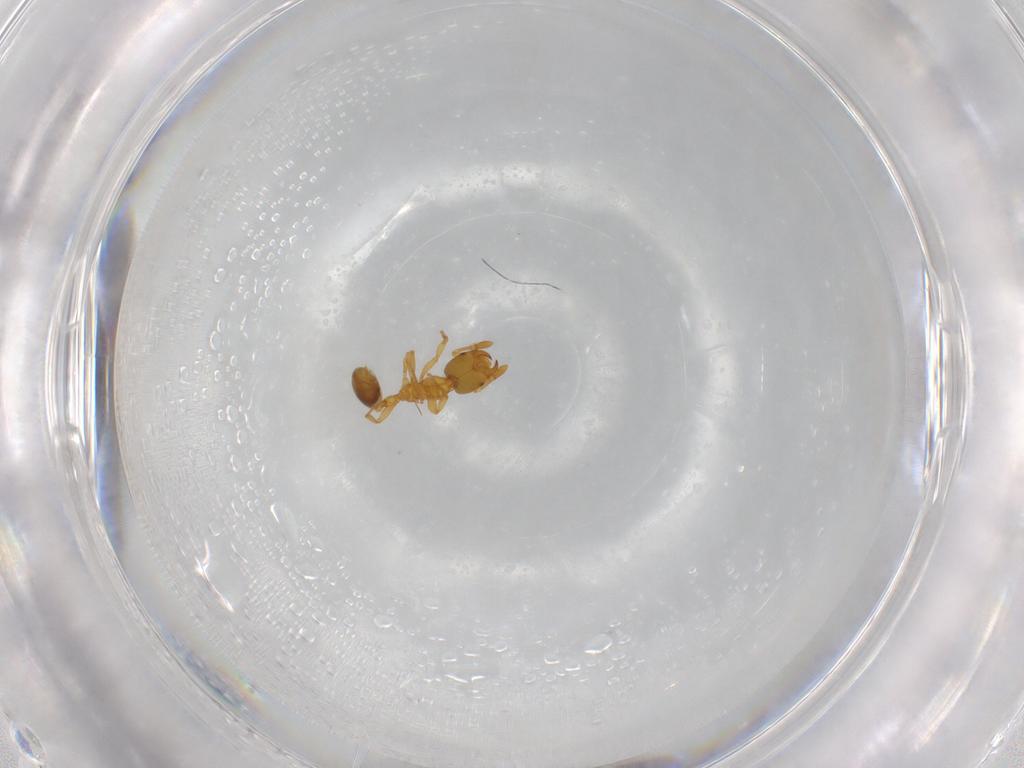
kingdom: Animalia
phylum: Arthropoda
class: Insecta
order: Hymenoptera
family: Formicidae
